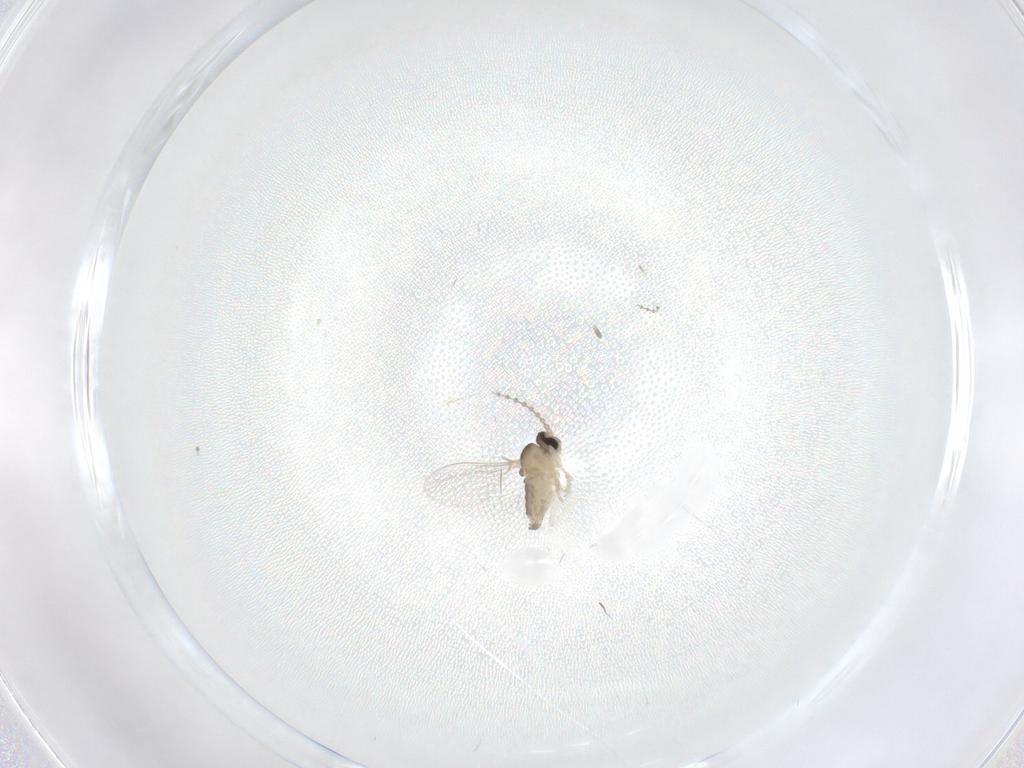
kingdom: Animalia
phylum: Arthropoda
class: Insecta
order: Diptera
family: Cecidomyiidae
